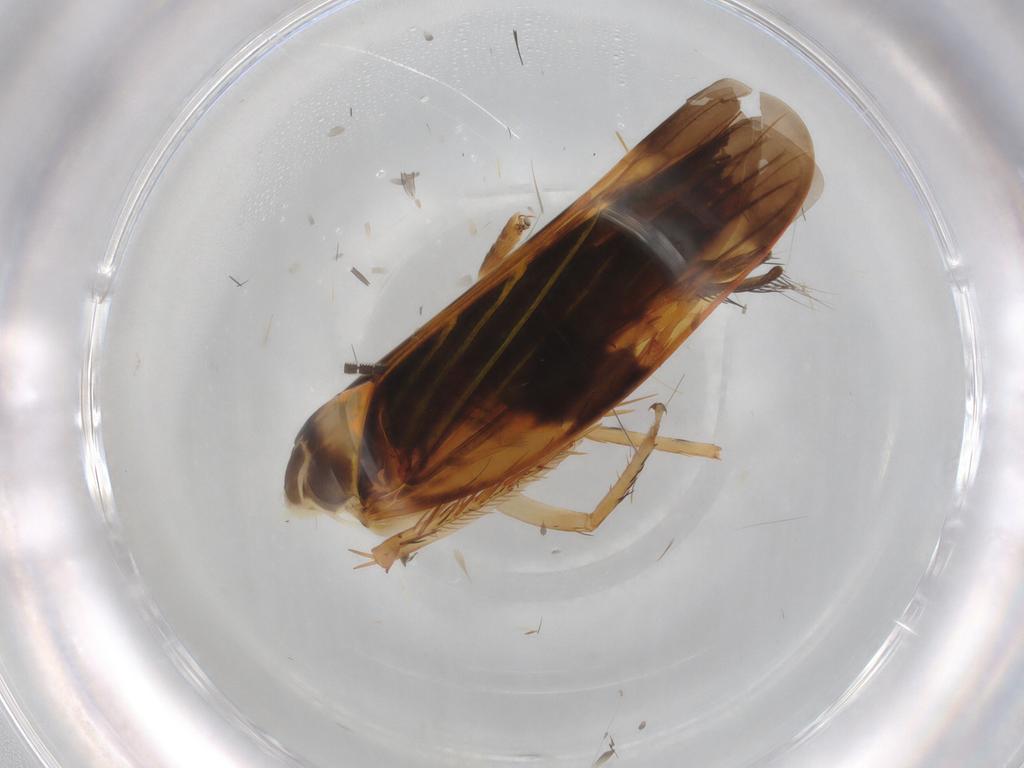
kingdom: Animalia
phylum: Arthropoda
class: Insecta
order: Hemiptera
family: Cicadellidae
